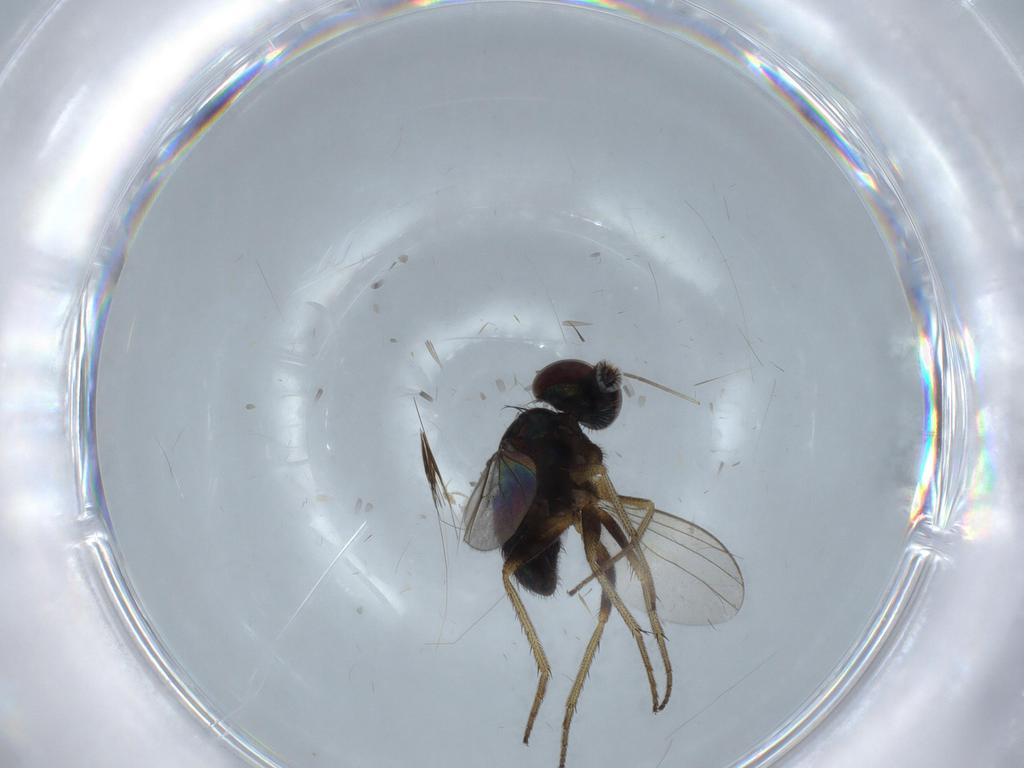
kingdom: Animalia
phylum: Arthropoda
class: Insecta
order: Diptera
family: Dolichopodidae
